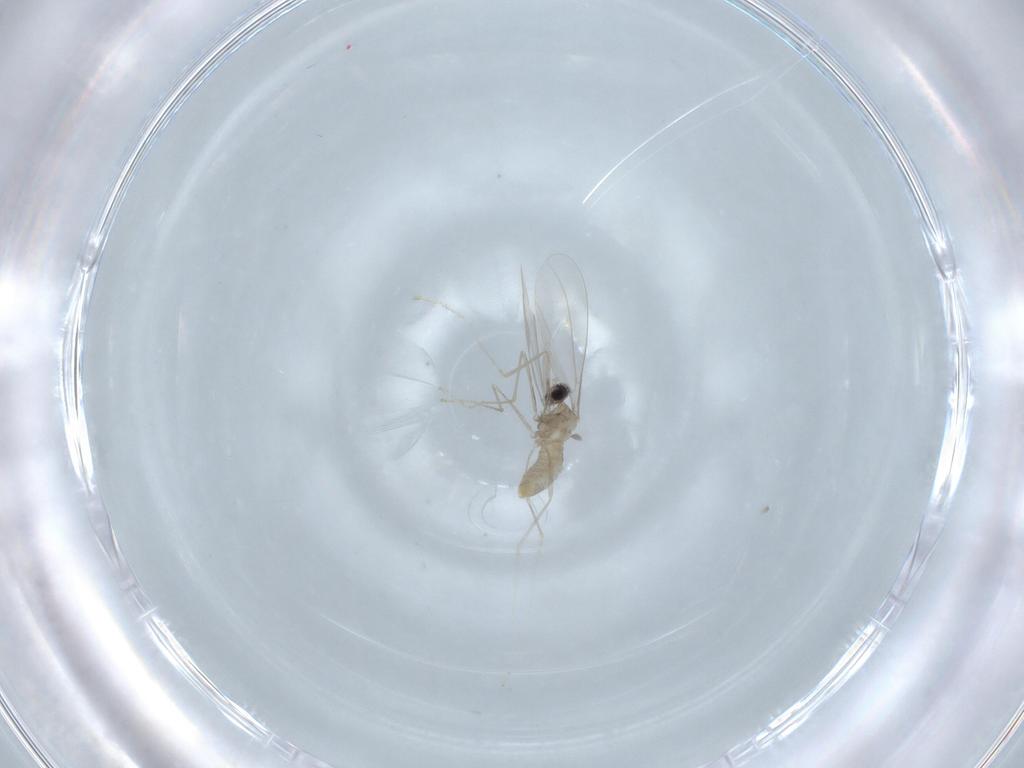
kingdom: Animalia
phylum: Arthropoda
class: Insecta
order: Diptera
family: Cecidomyiidae
